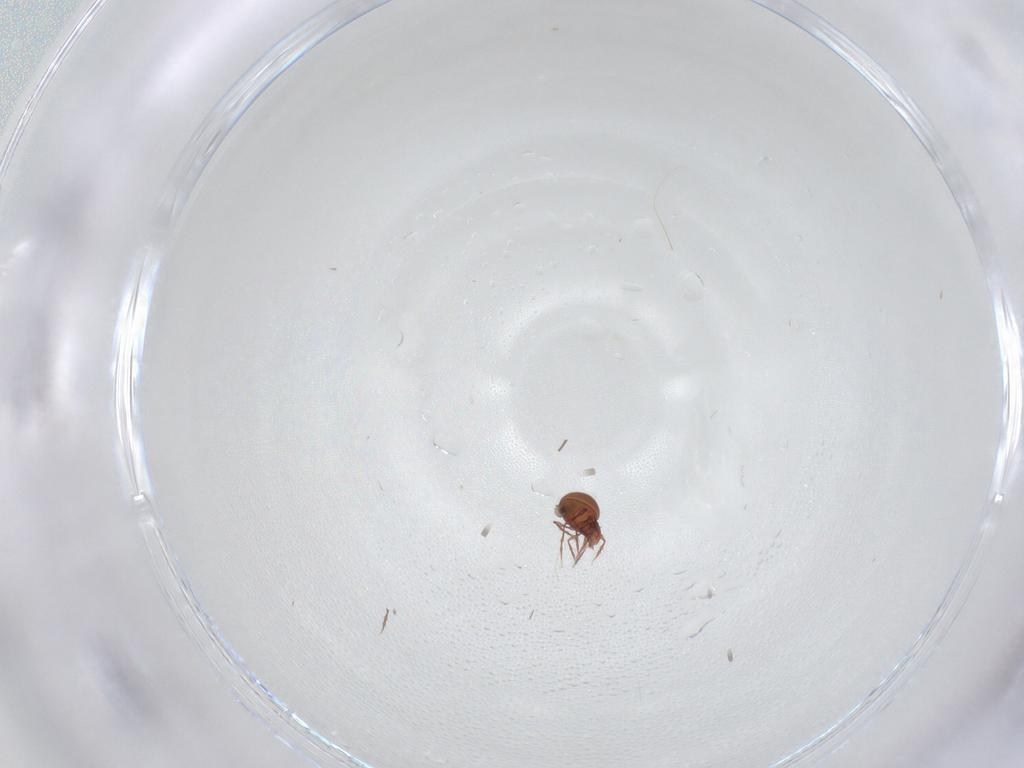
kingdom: Animalia
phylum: Arthropoda
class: Arachnida
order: Sarcoptiformes
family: Oppiidae
